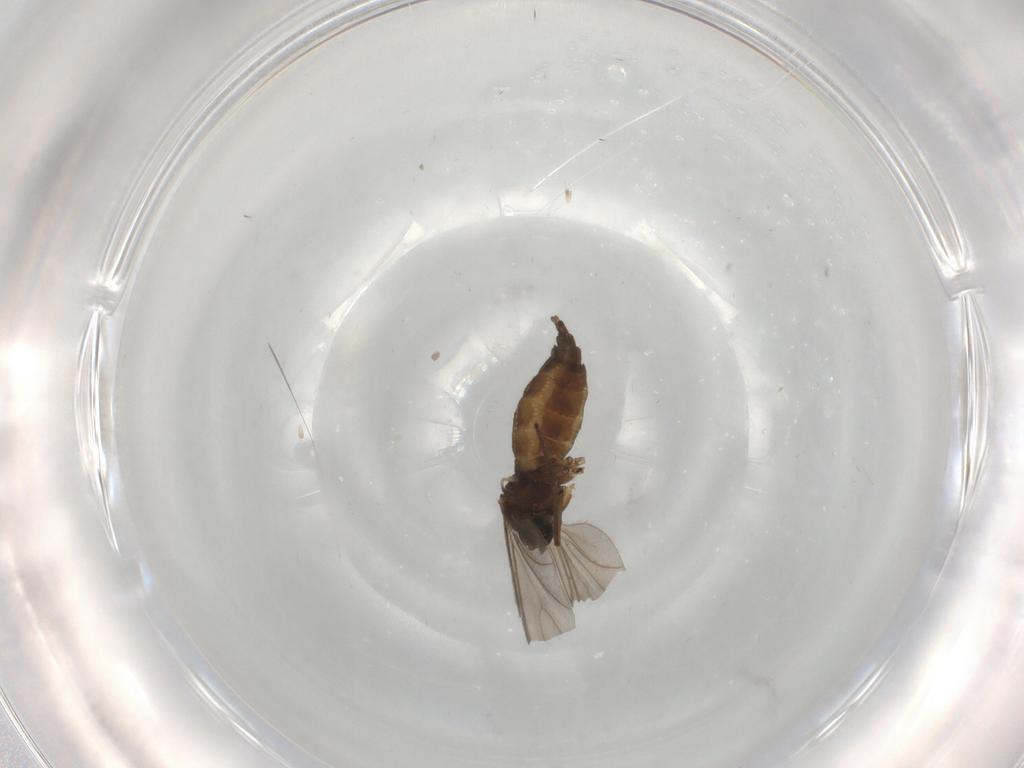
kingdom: Animalia
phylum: Arthropoda
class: Insecta
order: Diptera
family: Sciaridae
